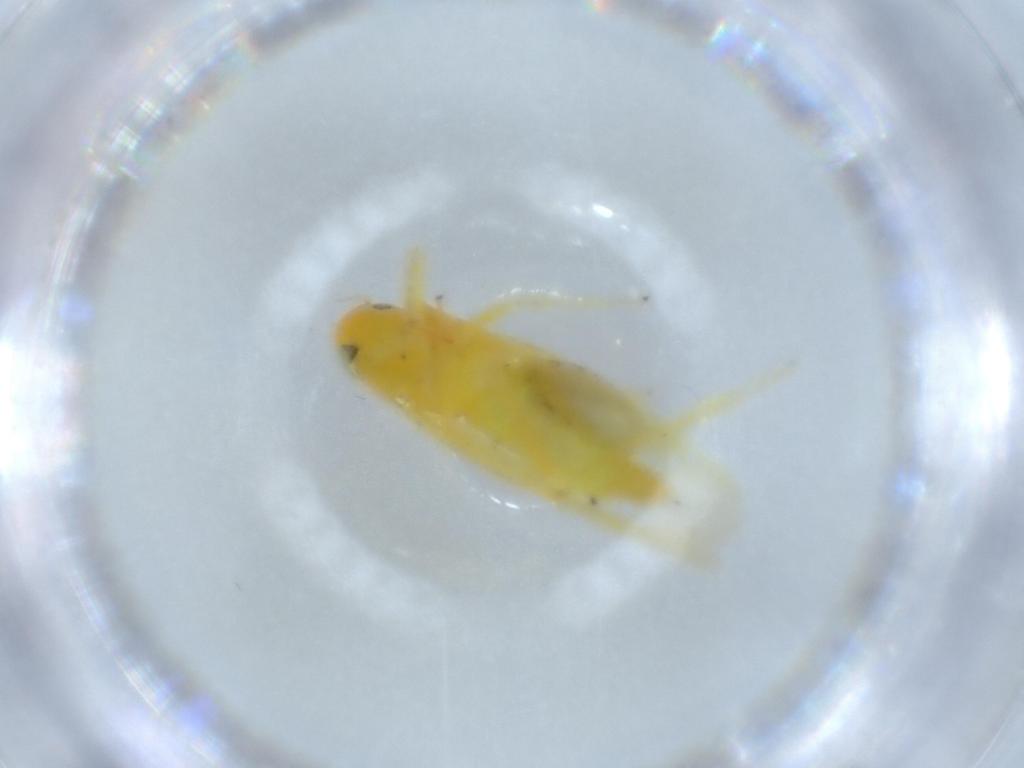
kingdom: Animalia
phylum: Arthropoda
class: Insecta
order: Hemiptera
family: Cicadellidae
